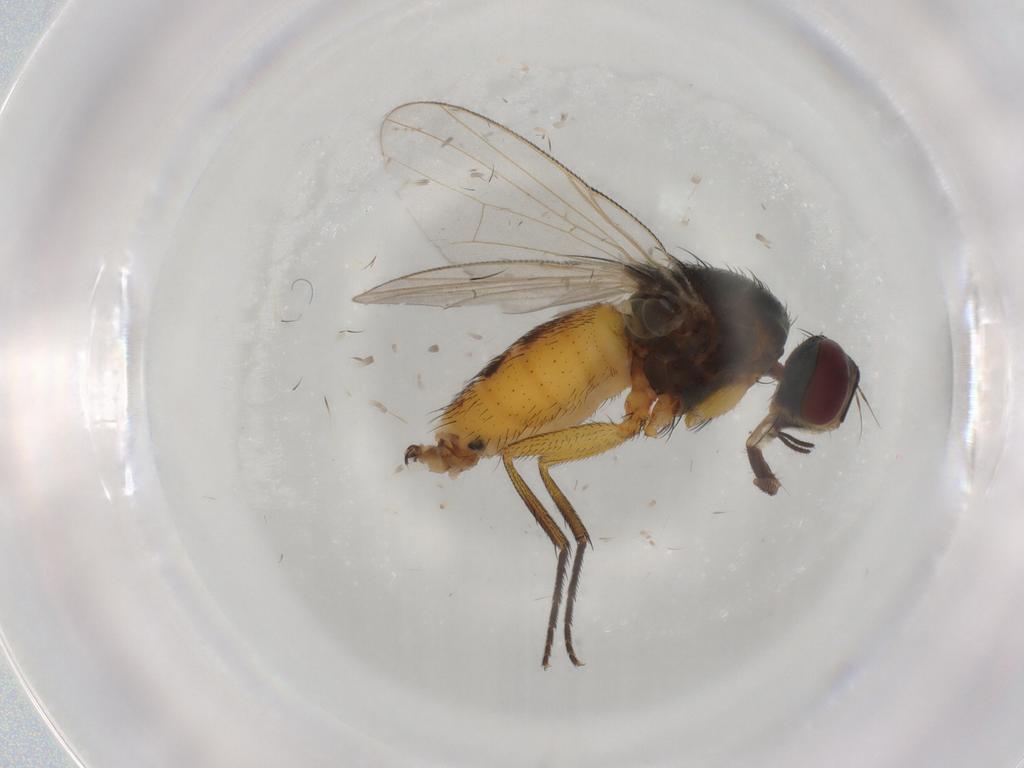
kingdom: Animalia
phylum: Arthropoda
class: Insecta
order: Diptera
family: Muscidae
